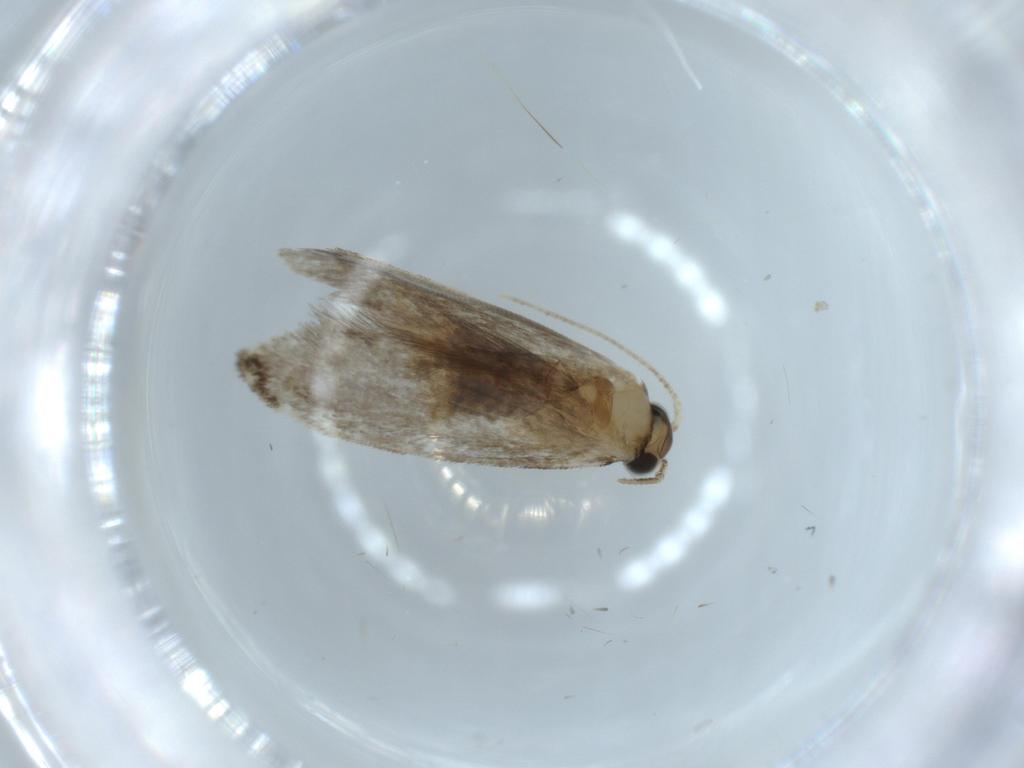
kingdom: Animalia
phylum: Arthropoda
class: Insecta
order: Lepidoptera
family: Tineidae
